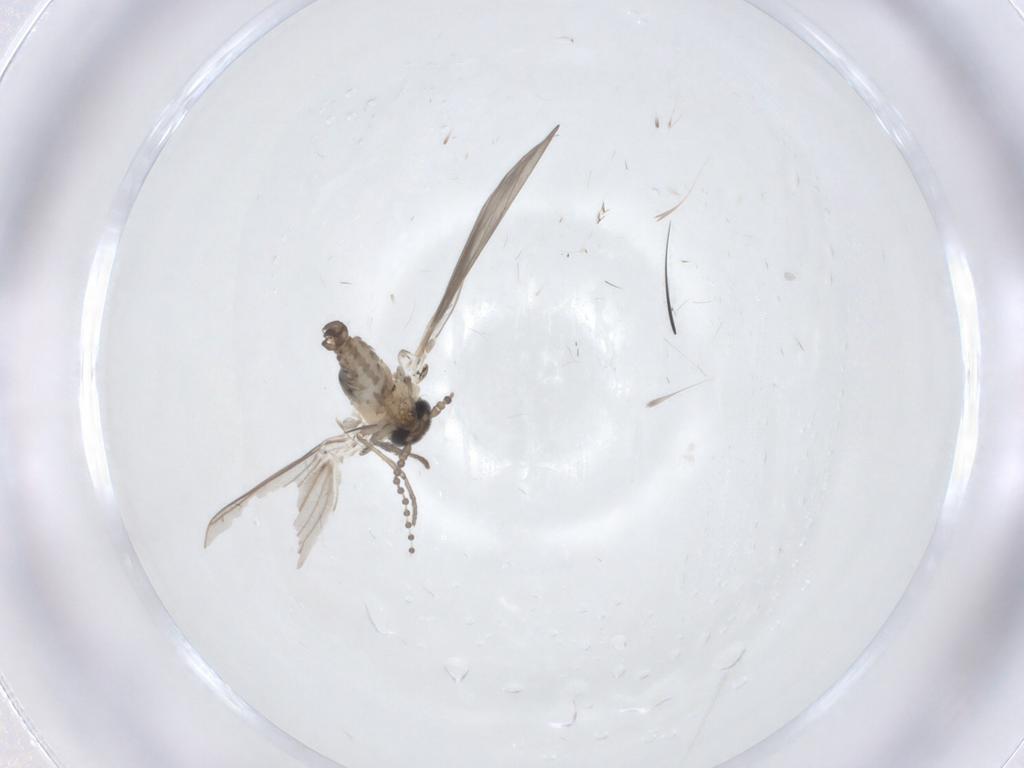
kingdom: Animalia
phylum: Arthropoda
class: Insecta
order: Diptera
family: Psychodidae
